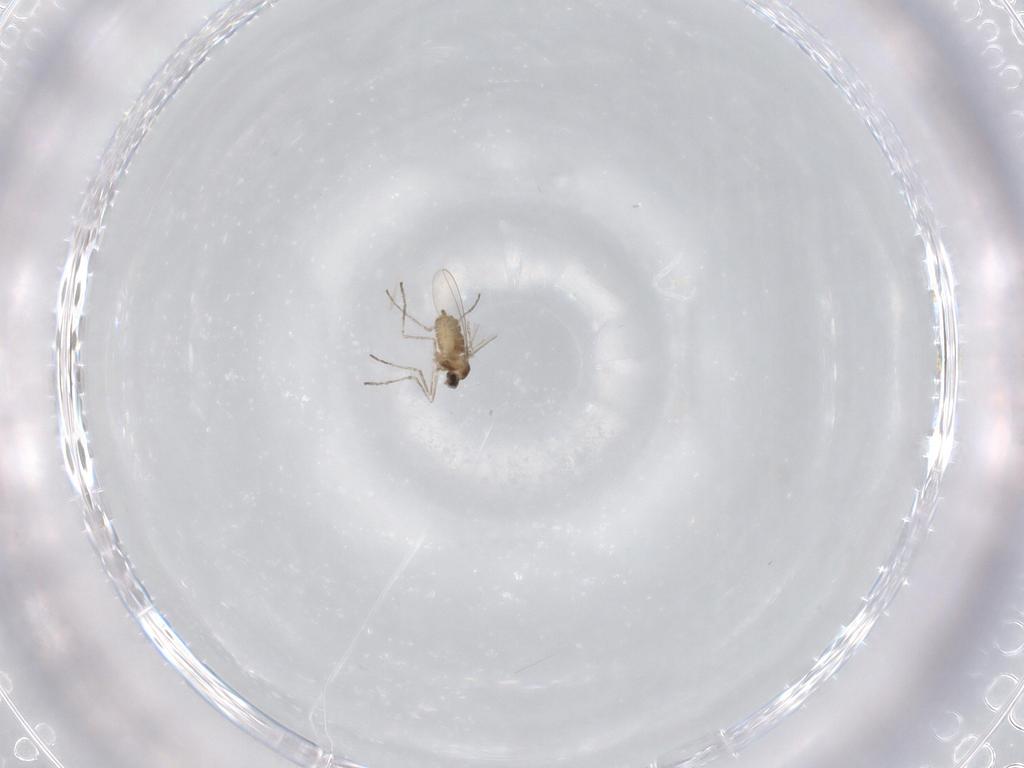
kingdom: Animalia
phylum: Arthropoda
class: Insecta
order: Diptera
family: Cecidomyiidae
